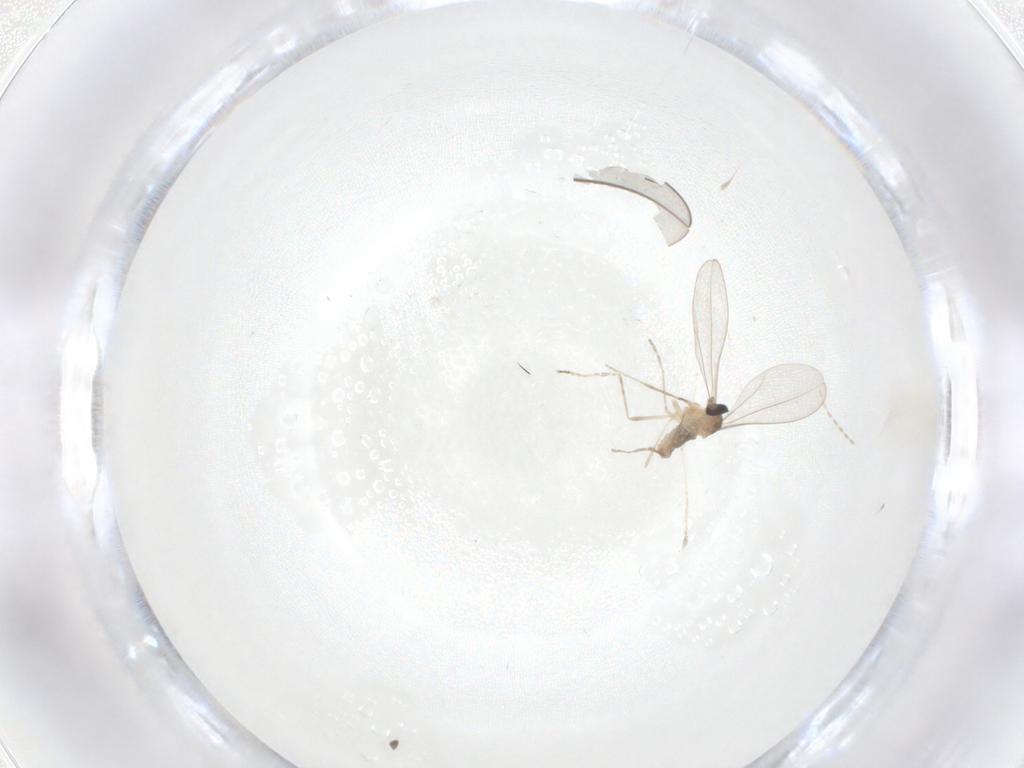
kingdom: Animalia
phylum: Arthropoda
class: Insecta
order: Diptera
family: Cecidomyiidae
